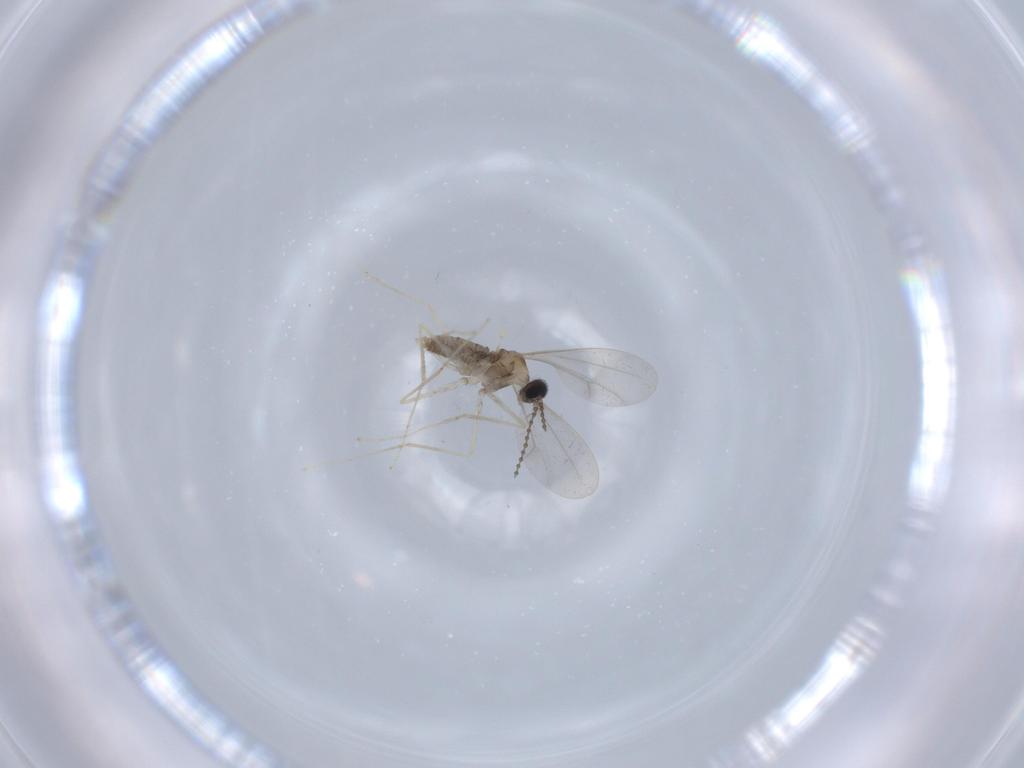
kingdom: Animalia
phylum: Arthropoda
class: Insecta
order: Diptera
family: Cecidomyiidae
